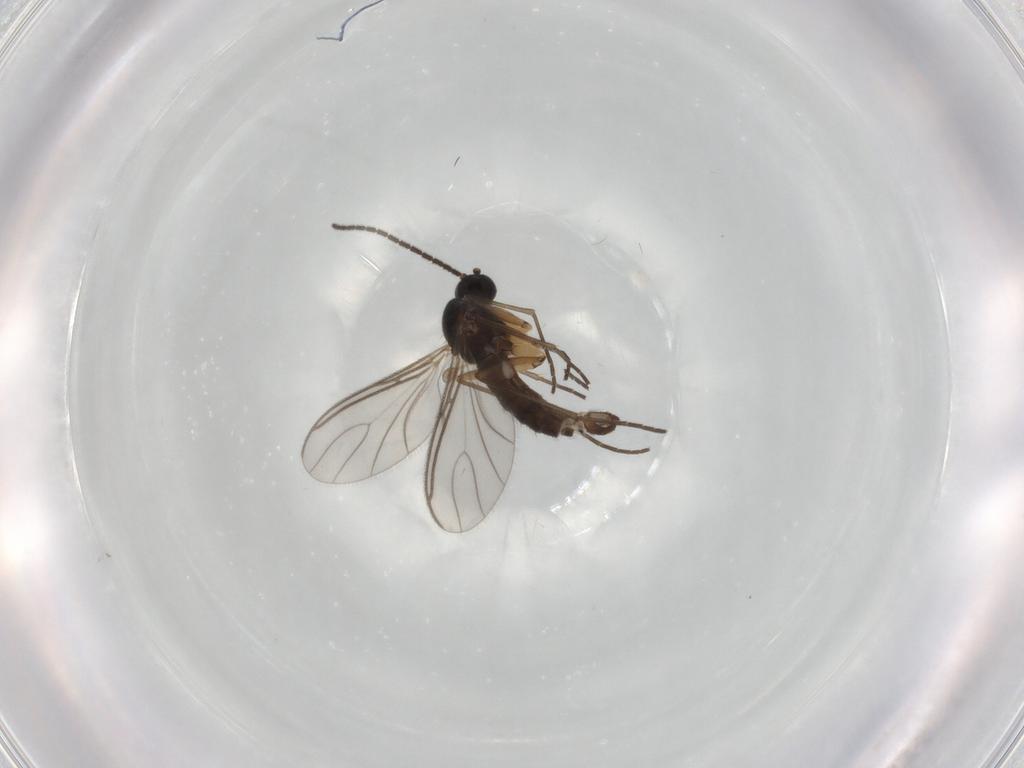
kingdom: Animalia
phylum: Arthropoda
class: Insecta
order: Diptera
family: Sciaridae
